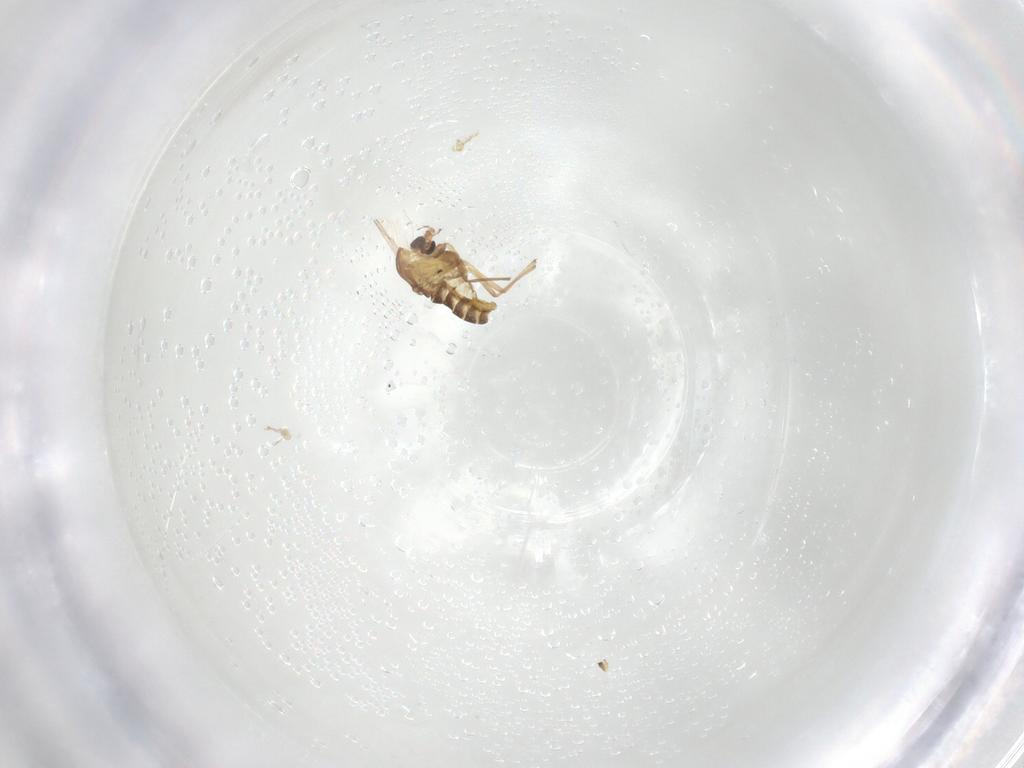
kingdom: Animalia
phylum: Arthropoda
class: Insecta
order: Diptera
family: Chironomidae
